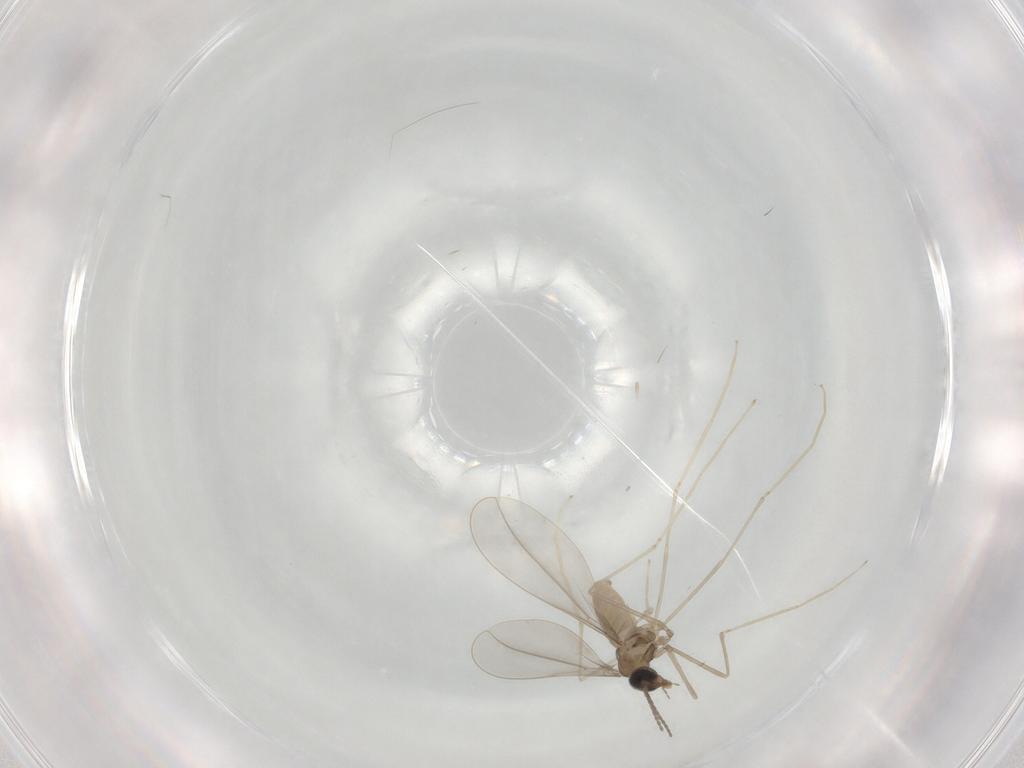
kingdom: Animalia
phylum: Arthropoda
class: Insecta
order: Diptera
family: Cecidomyiidae
